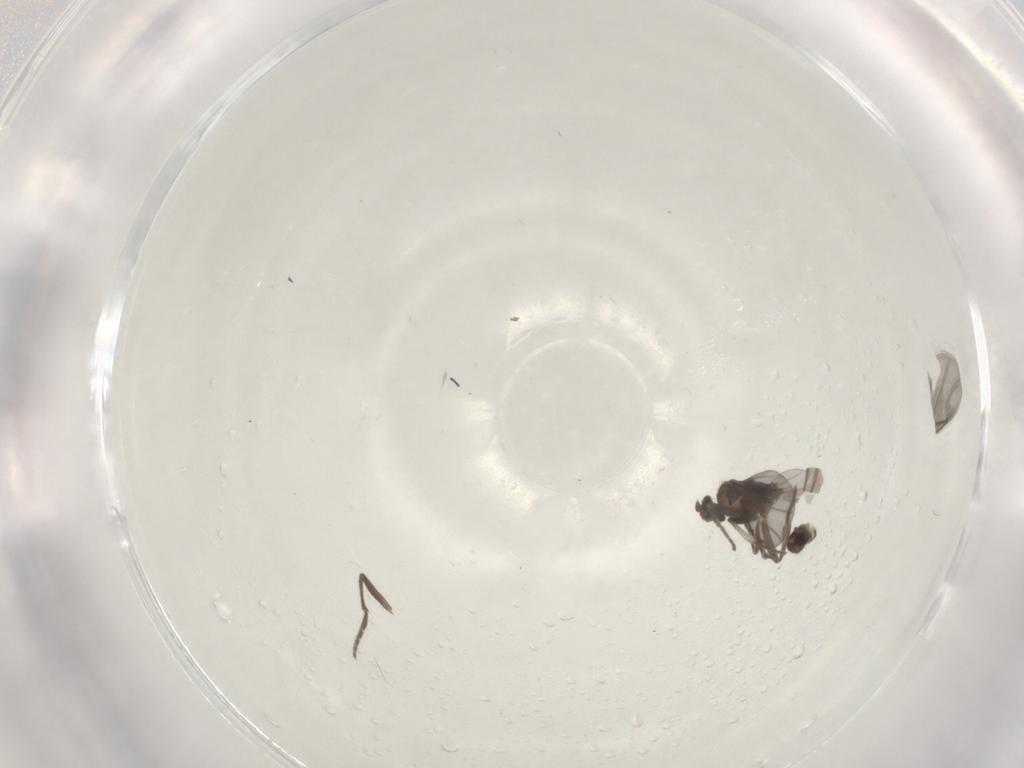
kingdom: Animalia
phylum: Arthropoda
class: Insecta
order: Diptera
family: Phoridae
